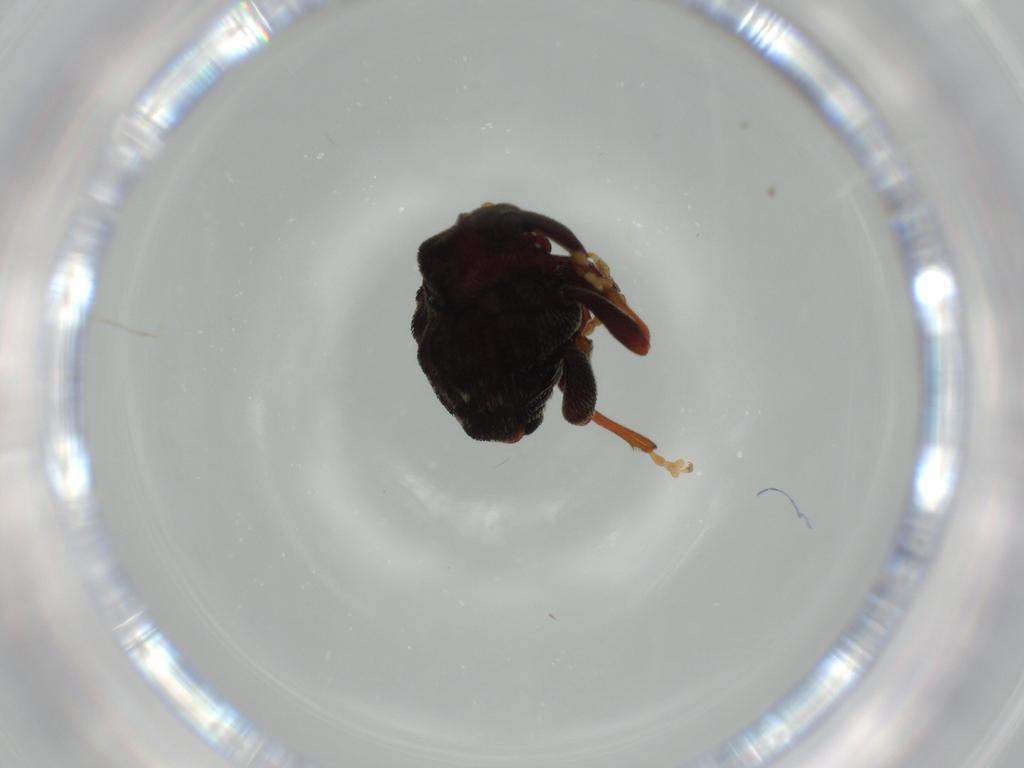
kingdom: Animalia
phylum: Arthropoda
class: Insecta
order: Coleoptera
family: Curculionidae
